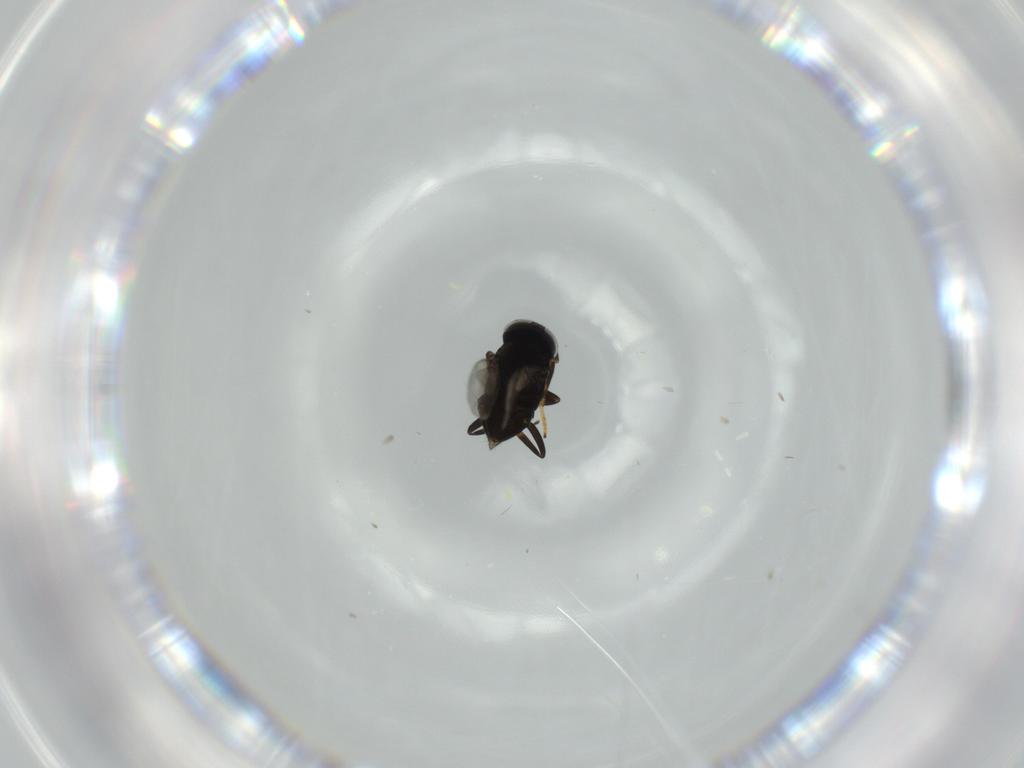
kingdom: Animalia
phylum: Arthropoda
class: Insecta
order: Hymenoptera
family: Encyrtidae
